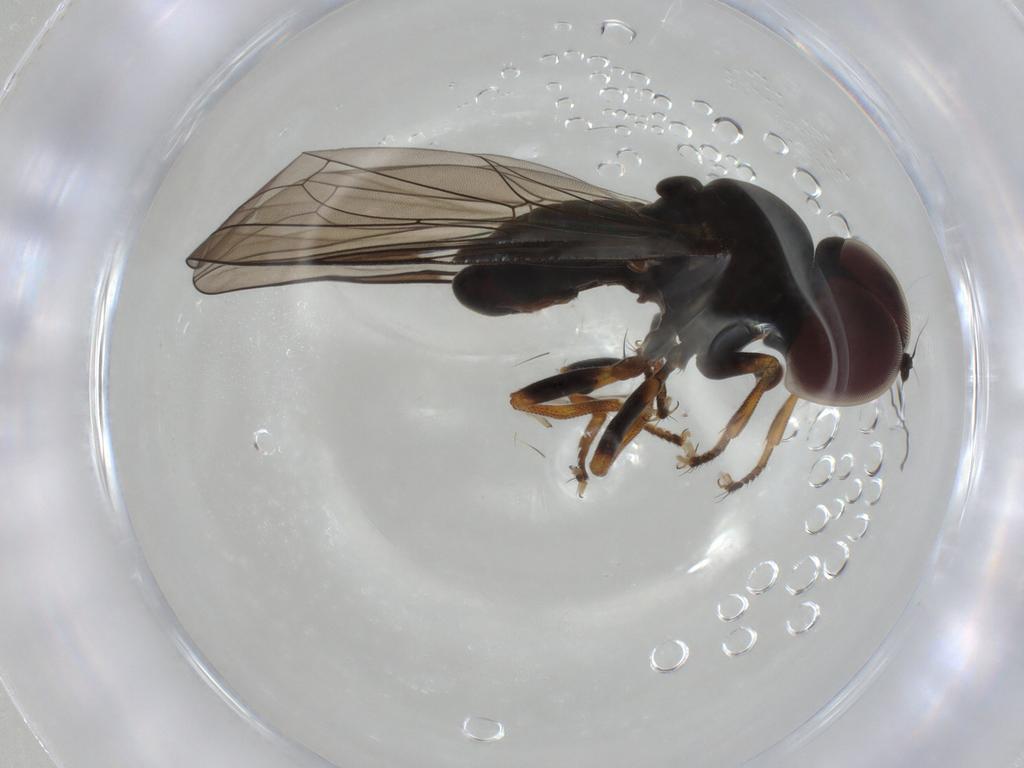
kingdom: Animalia
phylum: Arthropoda
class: Insecta
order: Diptera
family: Pipunculidae
